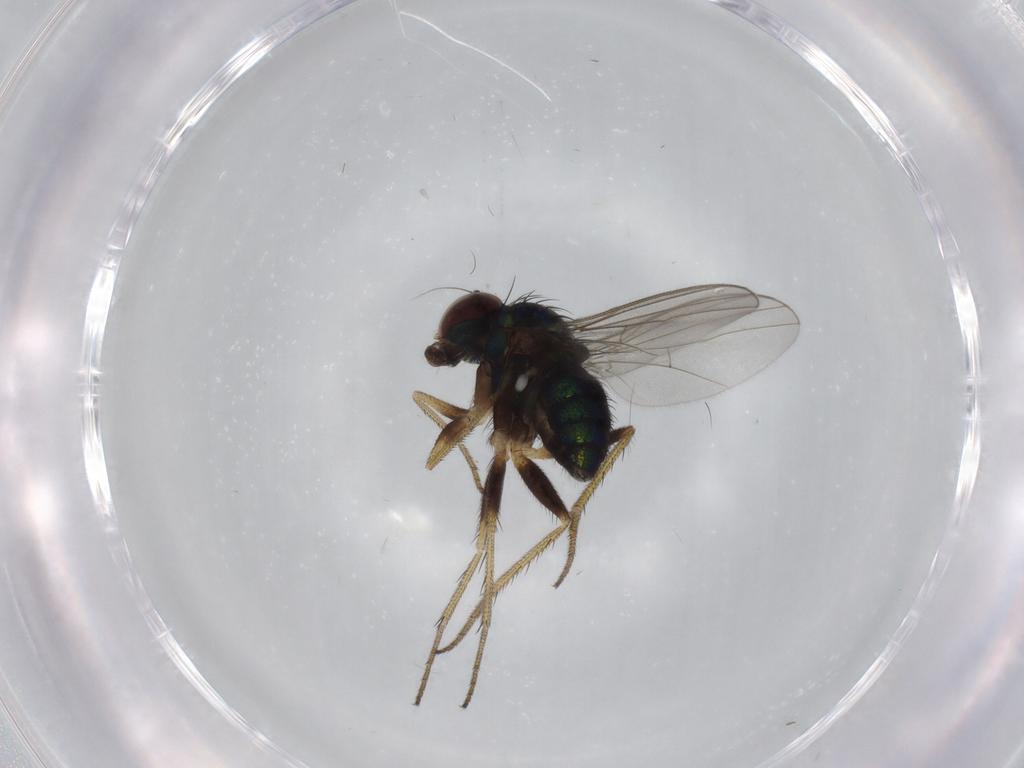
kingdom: Animalia
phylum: Arthropoda
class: Insecta
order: Diptera
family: Dolichopodidae
